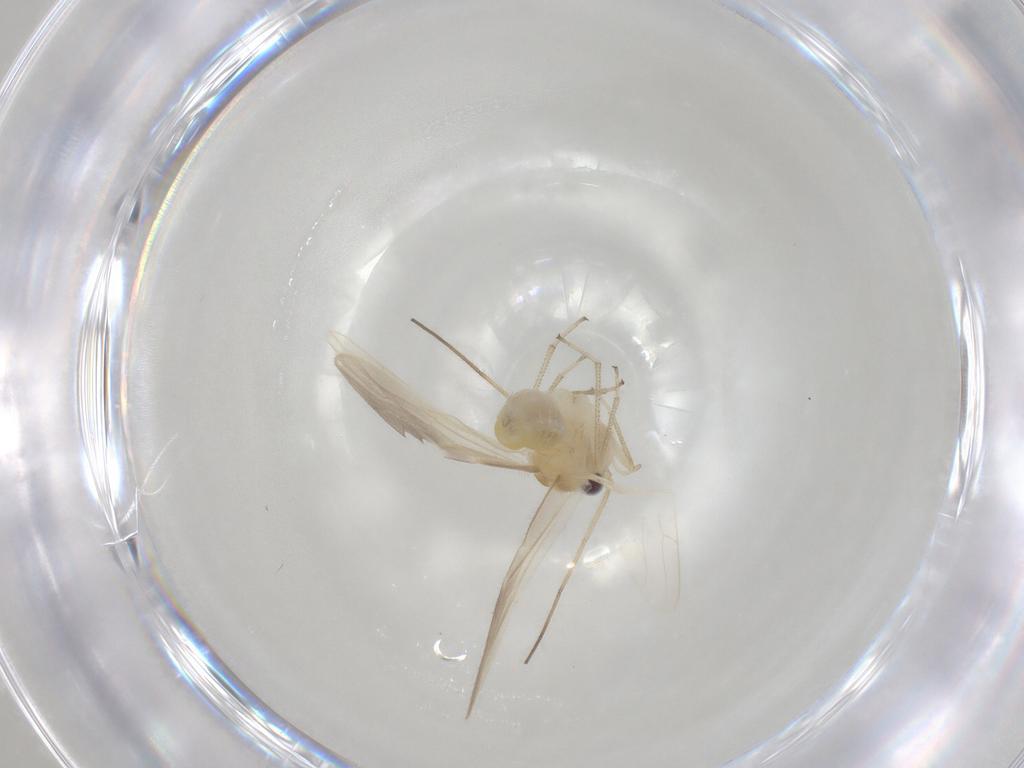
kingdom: Animalia
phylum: Arthropoda
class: Insecta
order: Psocodea
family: Caeciliusidae
